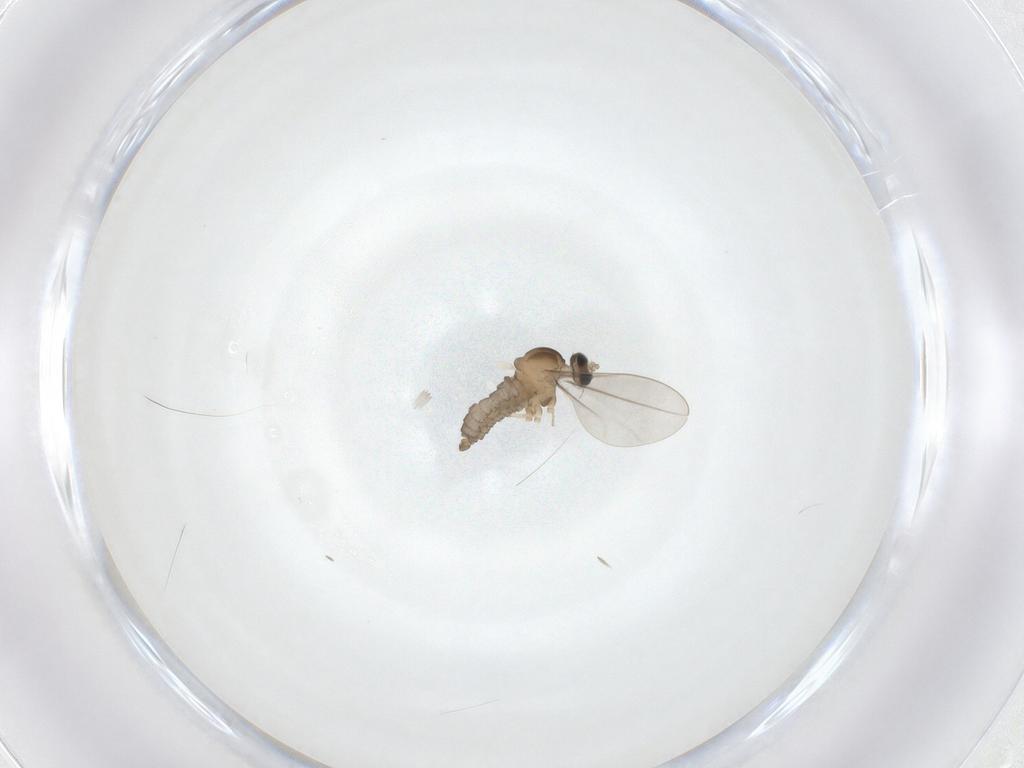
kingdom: Animalia
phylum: Arthropoda
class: Insecta
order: Diptera
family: Cecidomyiidae
